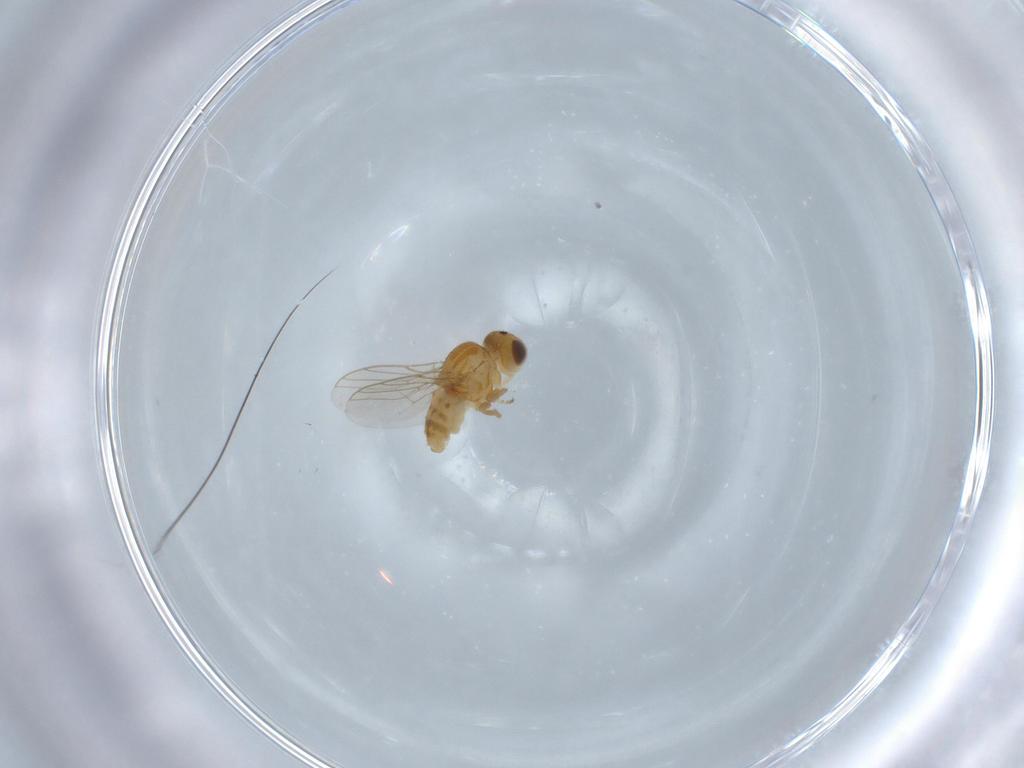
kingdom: Animalia
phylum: Arthropoda
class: Insecta
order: Diptera
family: Chloropidae
